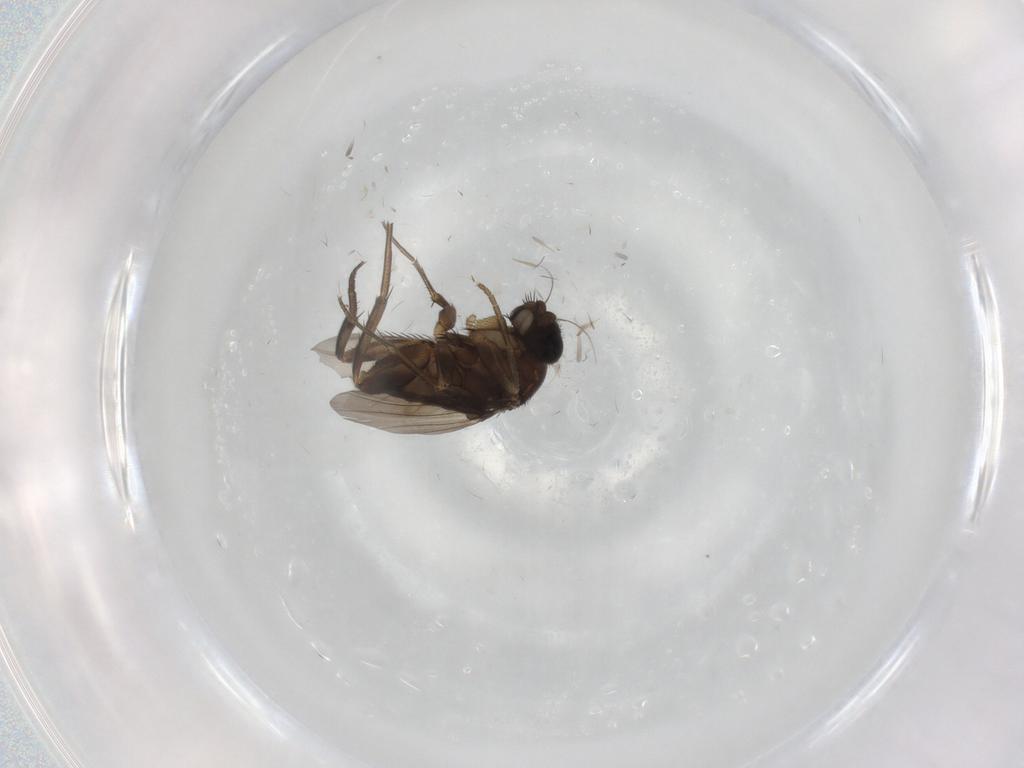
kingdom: Animalia
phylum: Arthropoda
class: Insecta
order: Diptera
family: Phoridae
